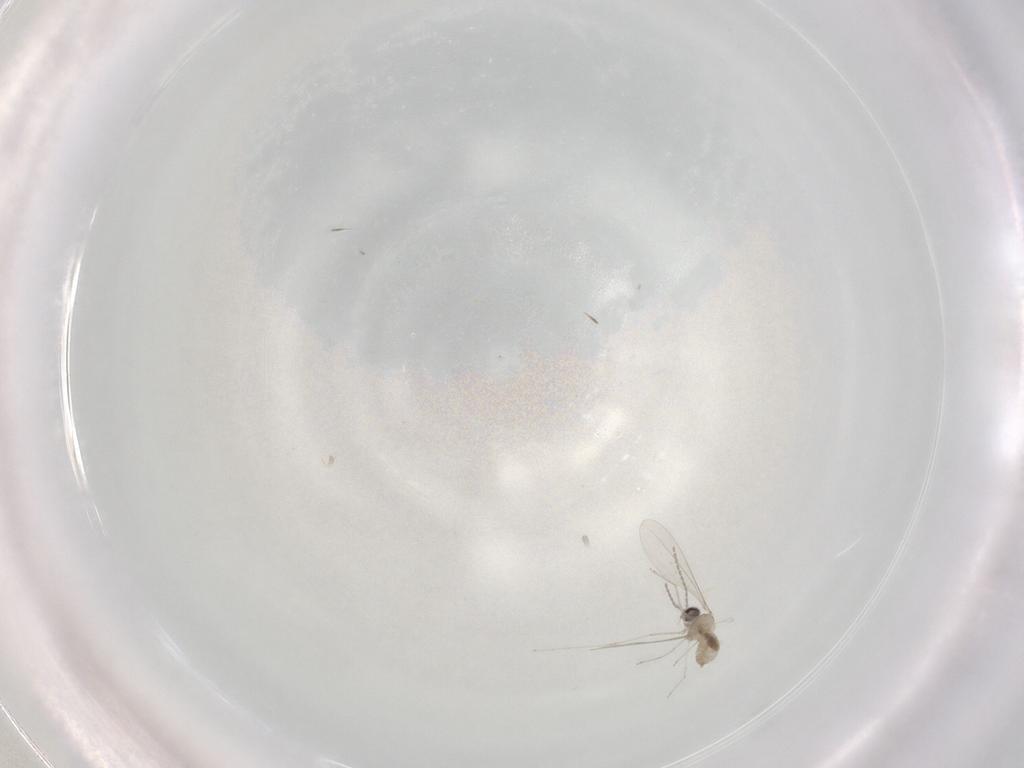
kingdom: Animalia
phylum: Arthropoda
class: Insecta
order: Diptera
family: Cecidomyiidae
